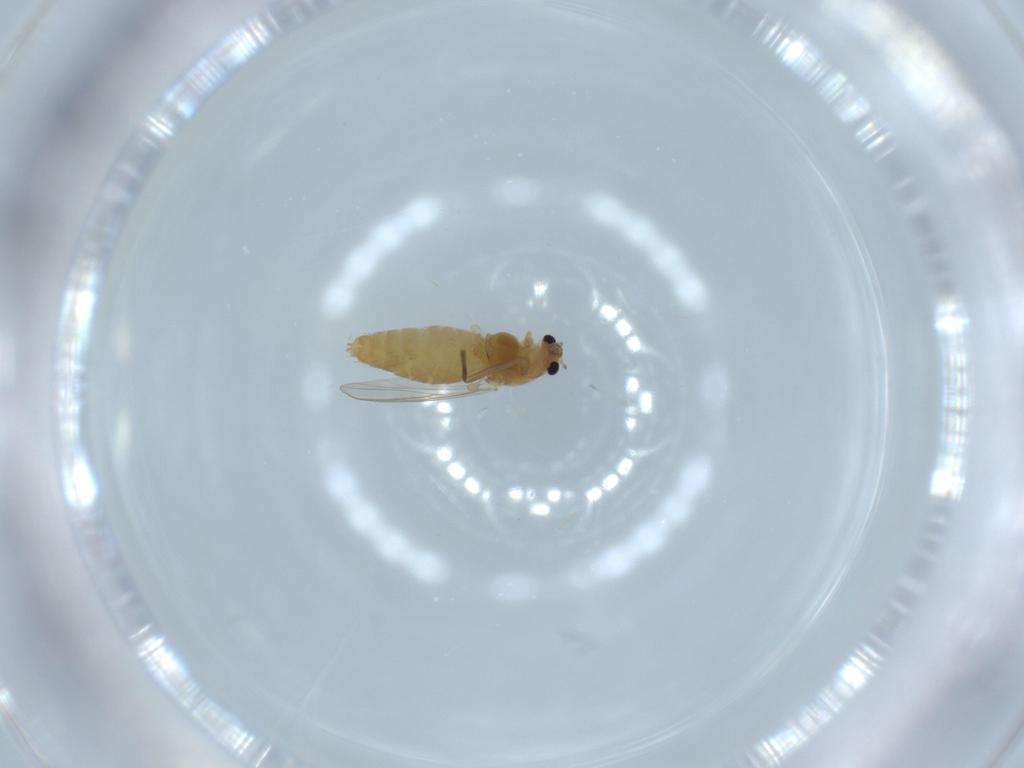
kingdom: Animalia
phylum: Arthropoda
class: Insecta
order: Diptera
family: Chironomidae
